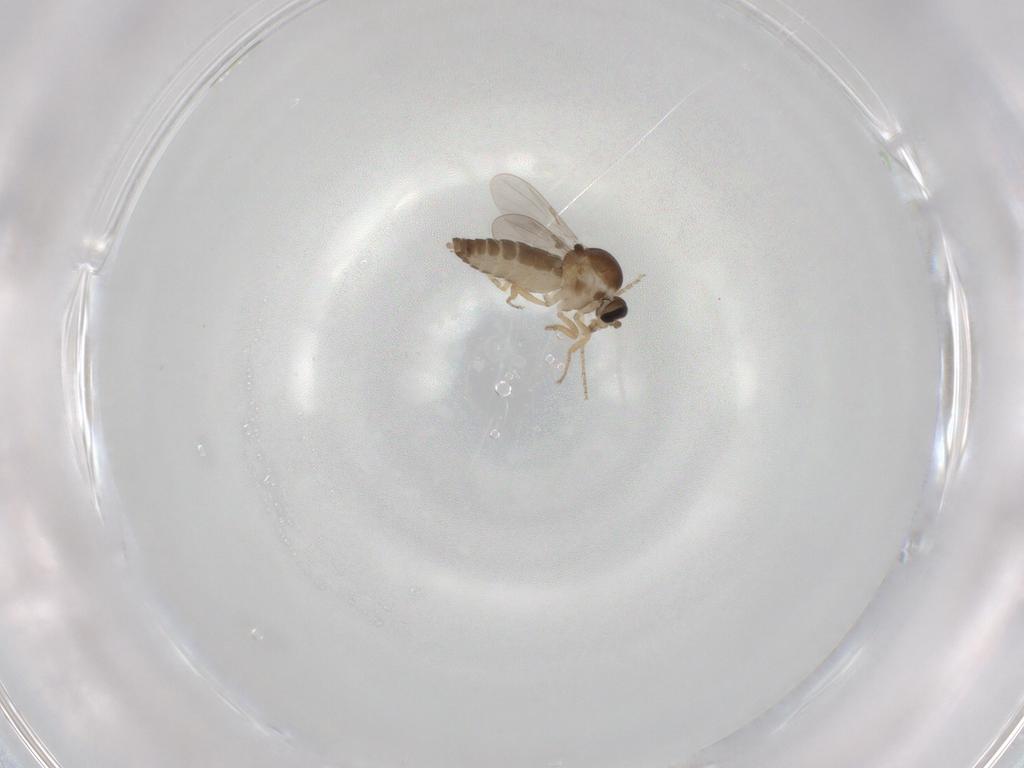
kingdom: Animalia
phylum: Arthropoda
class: Insecta
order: Diptera
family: Ceratopogonidae
